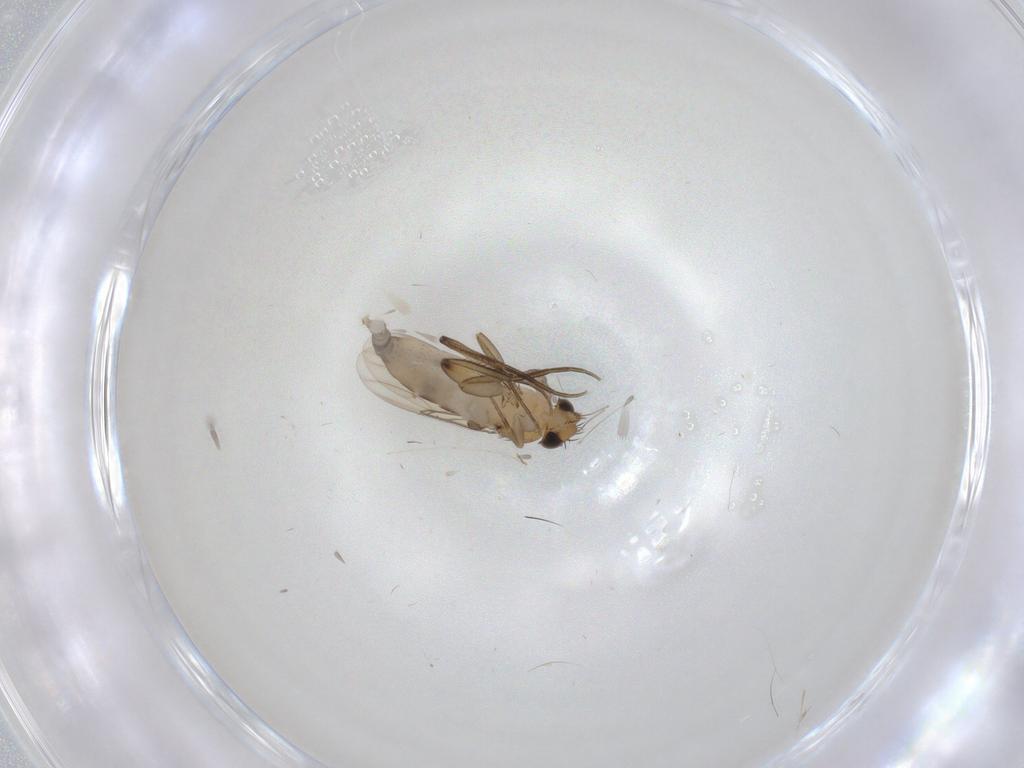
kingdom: Animalia
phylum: Arthropoda
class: Insecta
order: Diptera
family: Phoridae
